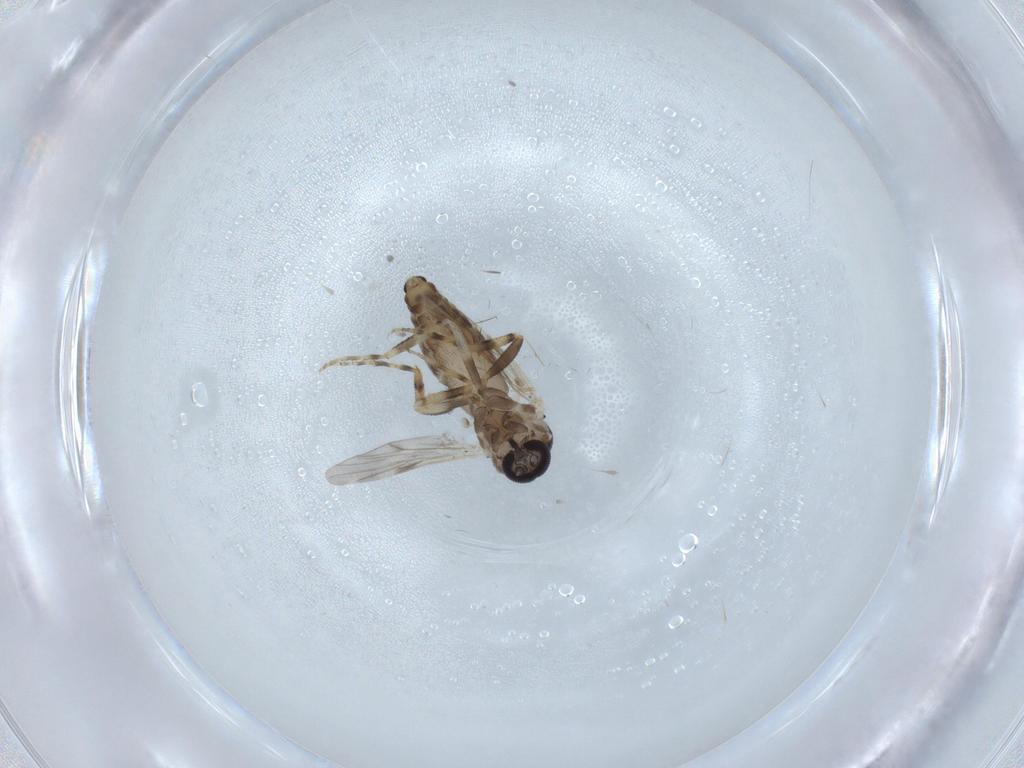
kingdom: Animalia
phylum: Arthropoda
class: Insecta
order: Diptera
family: Ceratopogonidae
